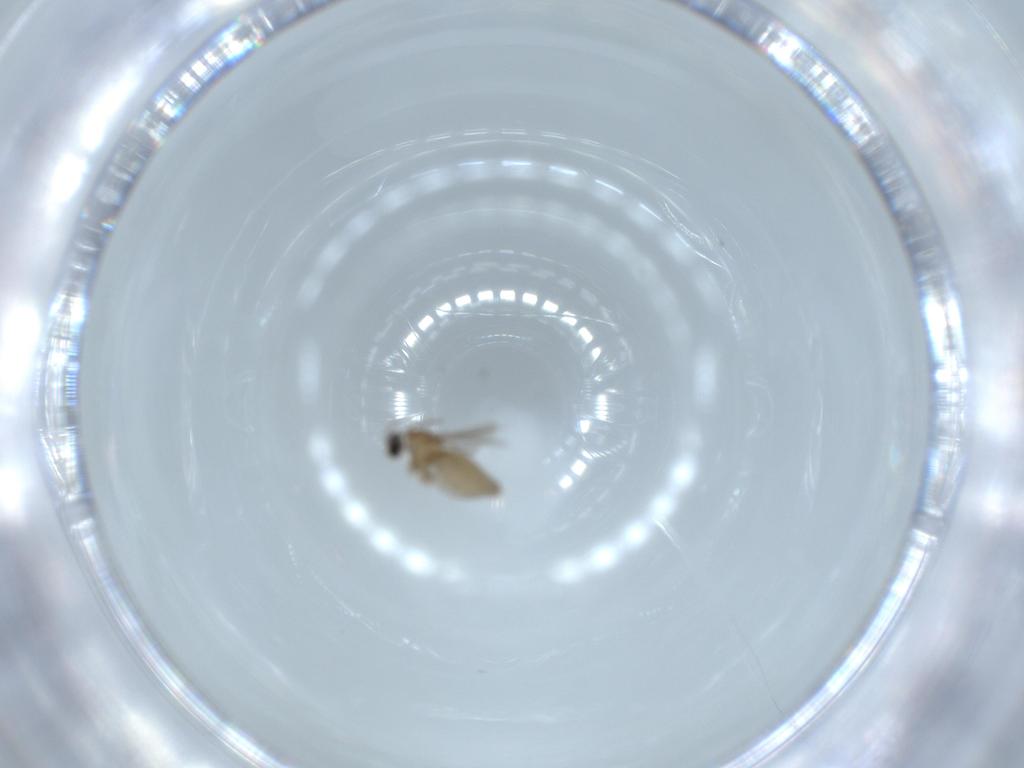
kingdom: Animalia
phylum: Arthropoda
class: Insecta
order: Diptera
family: Cecidomyiidae
